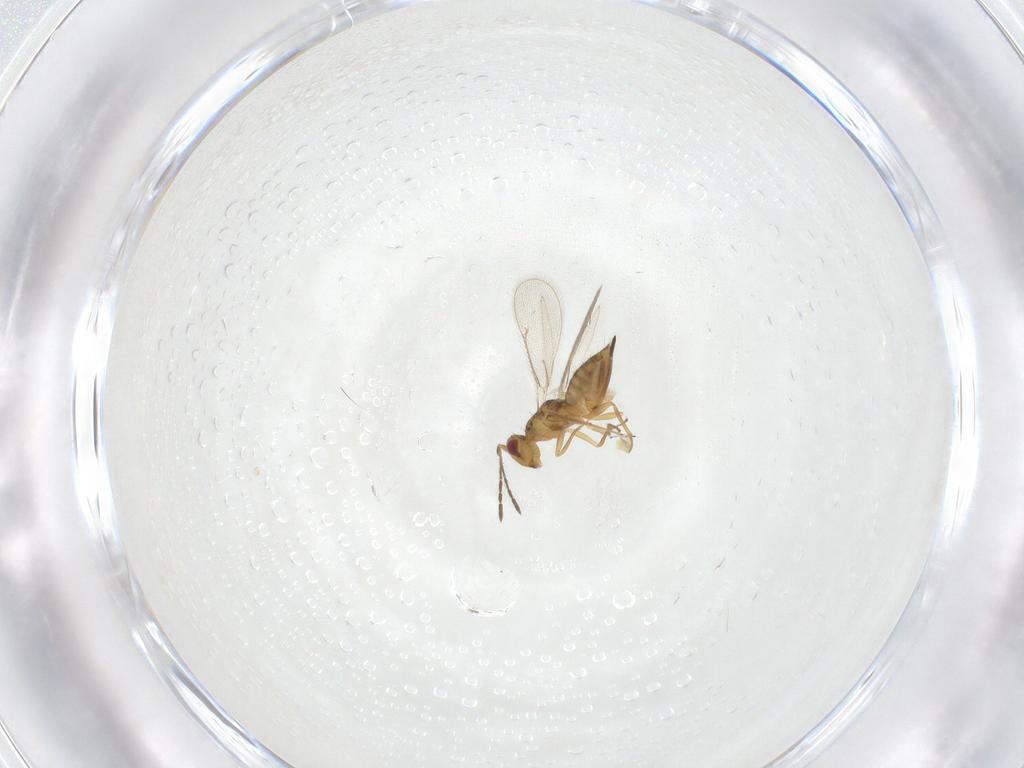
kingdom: Animalia
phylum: Arthropoda
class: Insecta
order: Hymenoptera
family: Eulophidae
